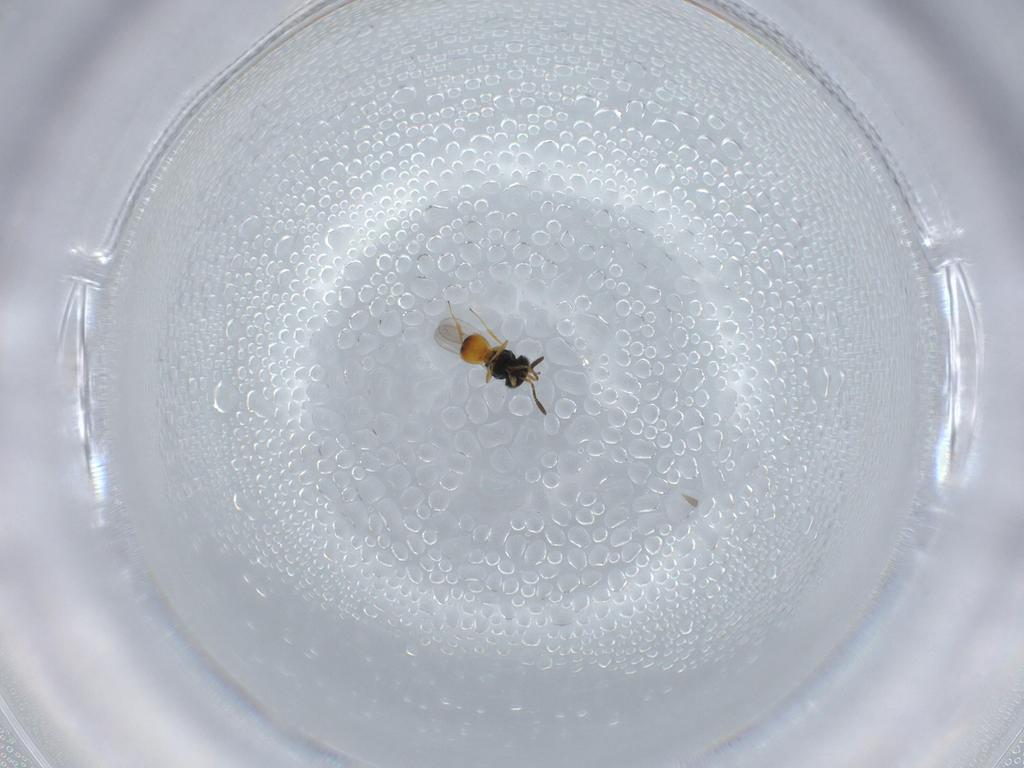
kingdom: Animalia
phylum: Arthropoda
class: Insecta
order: Hymenoptera
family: Scelionidae
